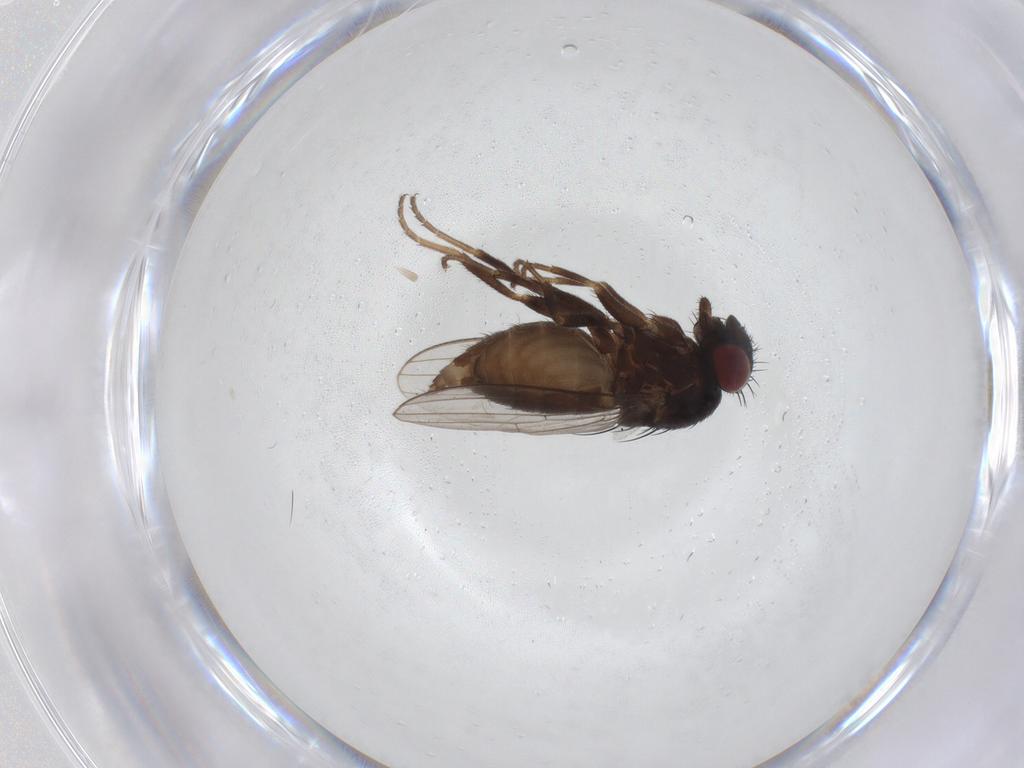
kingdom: Animalia
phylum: Arthropoda
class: Insecta
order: Diptera
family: Milichiidae
